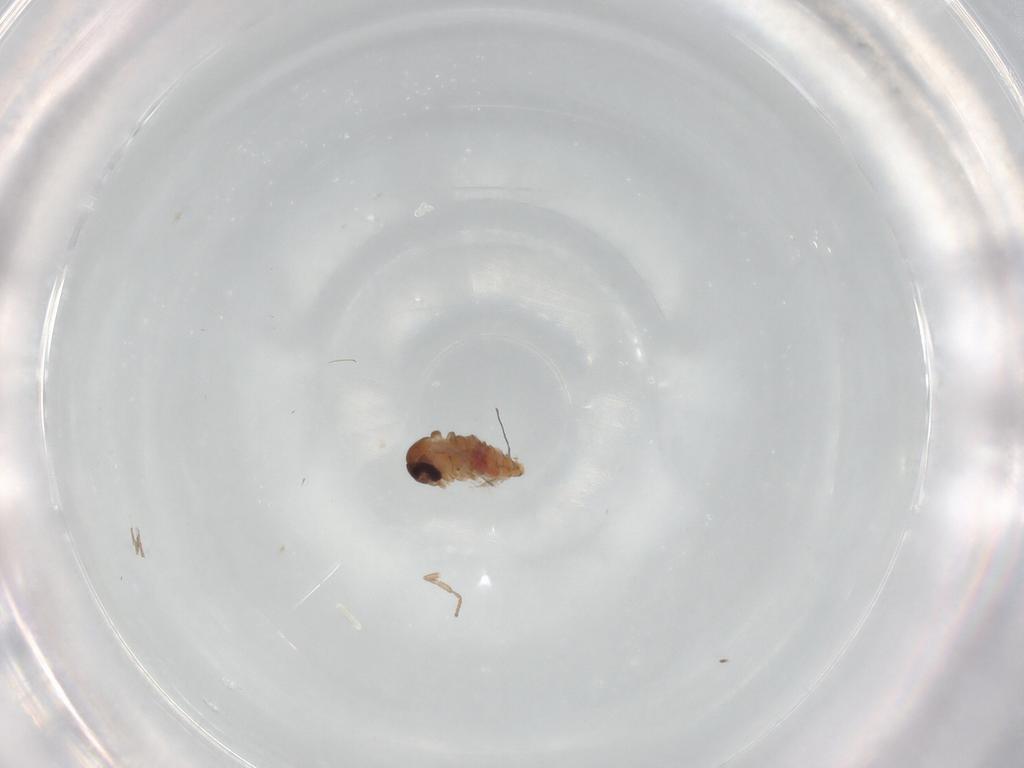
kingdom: Animalia
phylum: Arthropoda
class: Insecta
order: Diptera
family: Psychodidae
